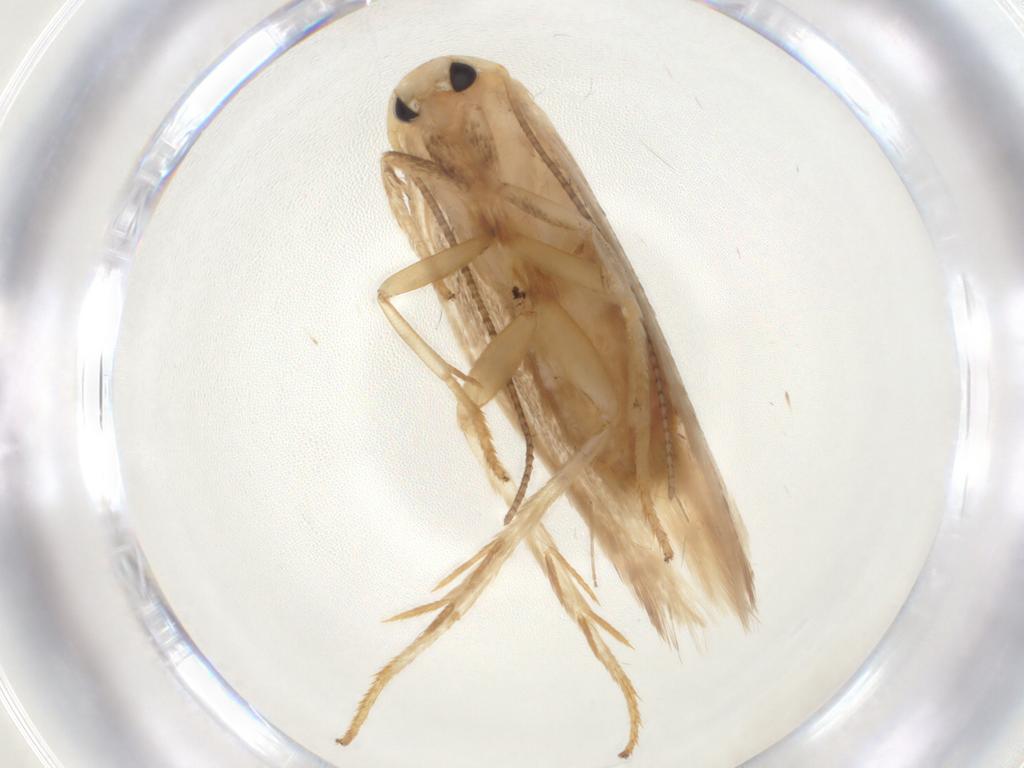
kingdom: Animalia
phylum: Arthropoda
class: Insecta
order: Lepidoptera
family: Geometridae
